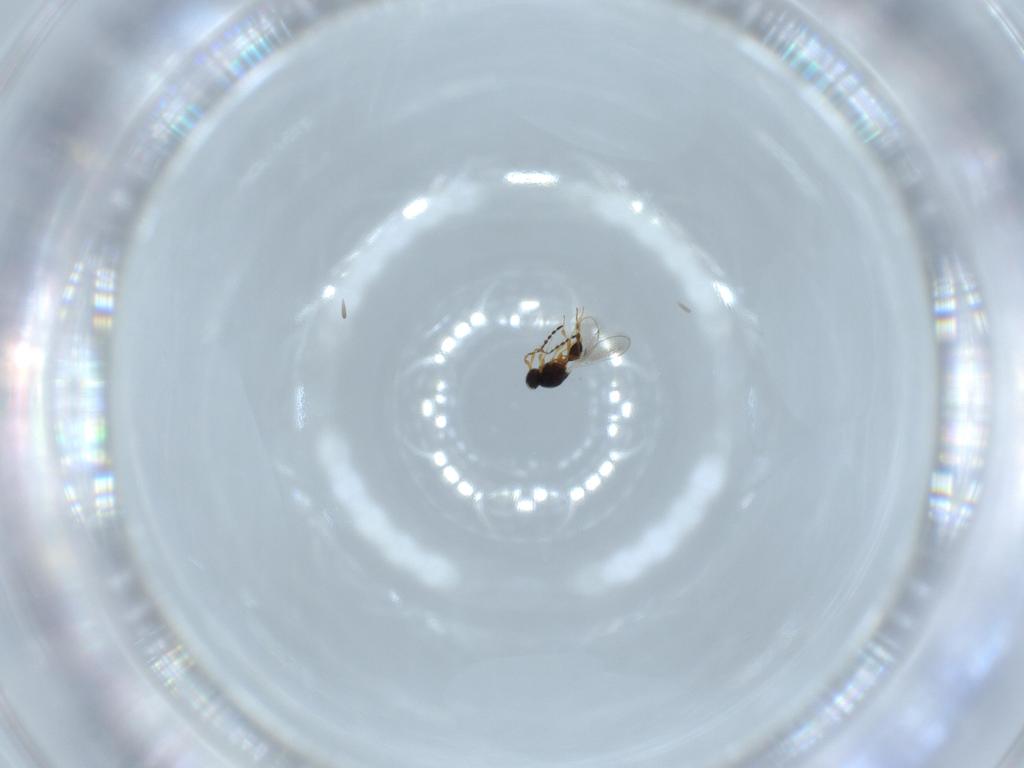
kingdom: Animalia
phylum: Arthropoda
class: Insecta
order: Hymenoptera
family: Platygastridae
